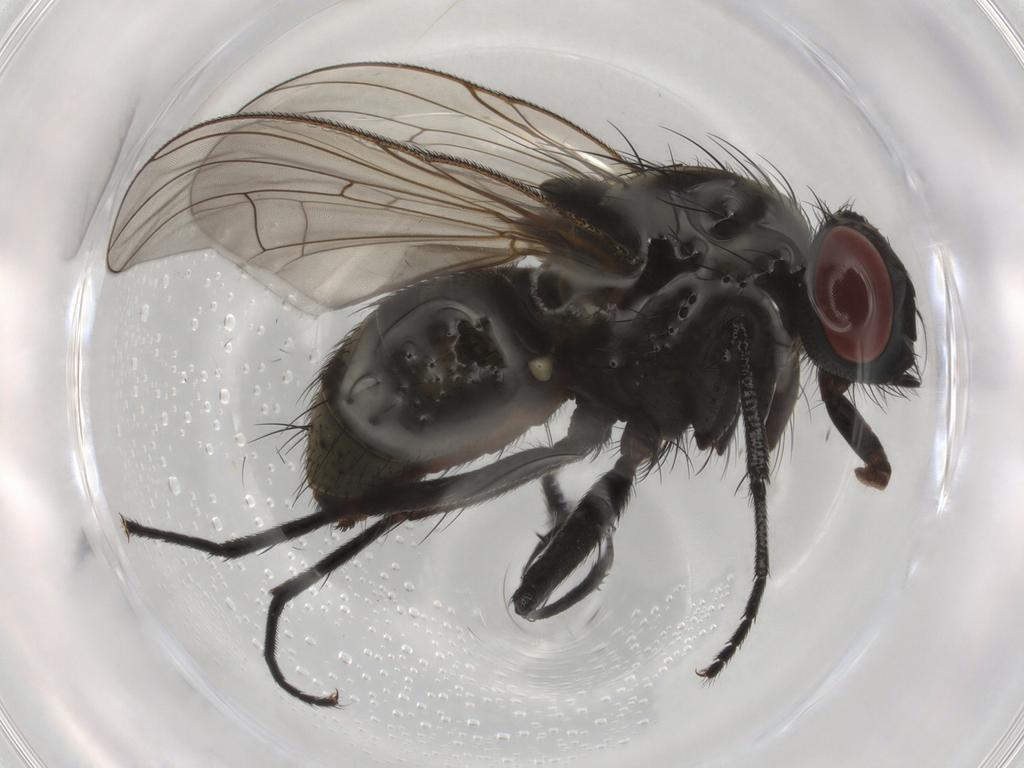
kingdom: Animalia
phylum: Arthropoda
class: Insecta
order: Diptera
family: Muscidae
